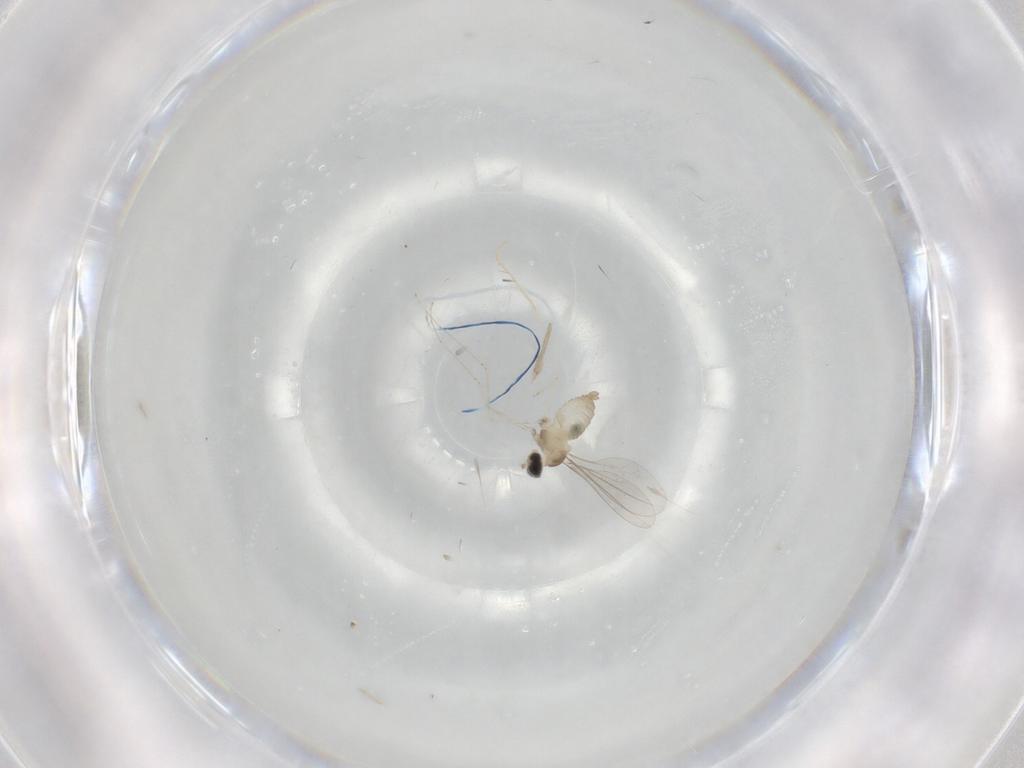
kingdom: Animalia
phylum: Arthropoda
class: Insecta
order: Diptera
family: Cecidomyiidae
